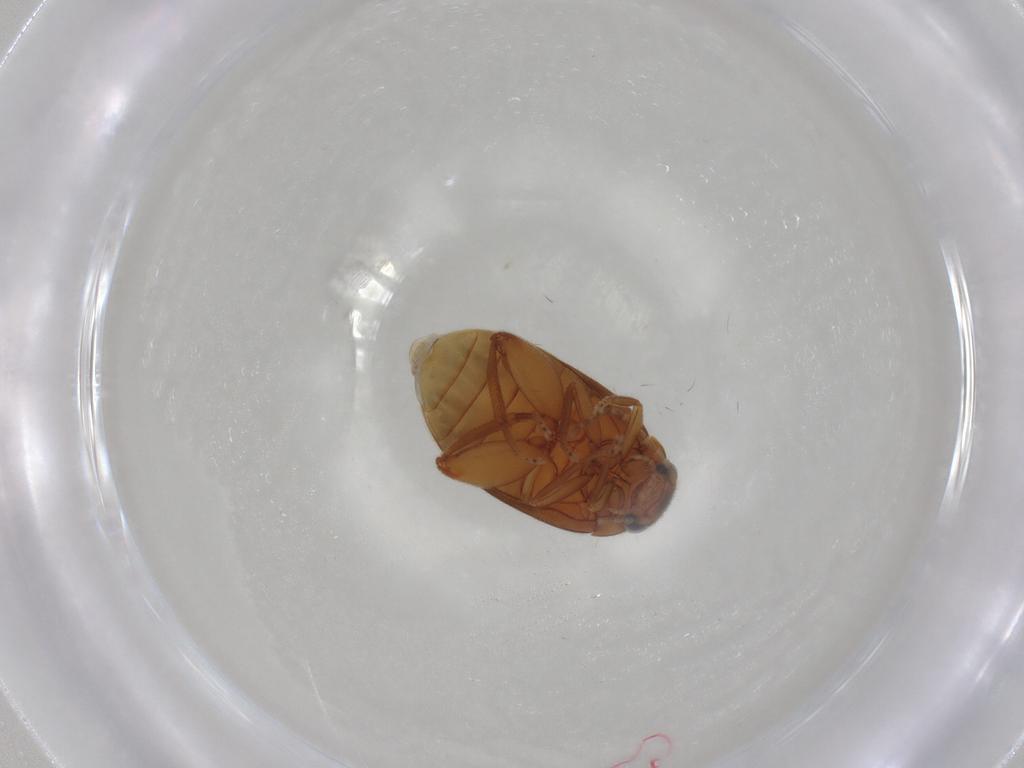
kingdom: Animalia
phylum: Arthropoda
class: Insecta
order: Coleoptera
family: Scirtidae
